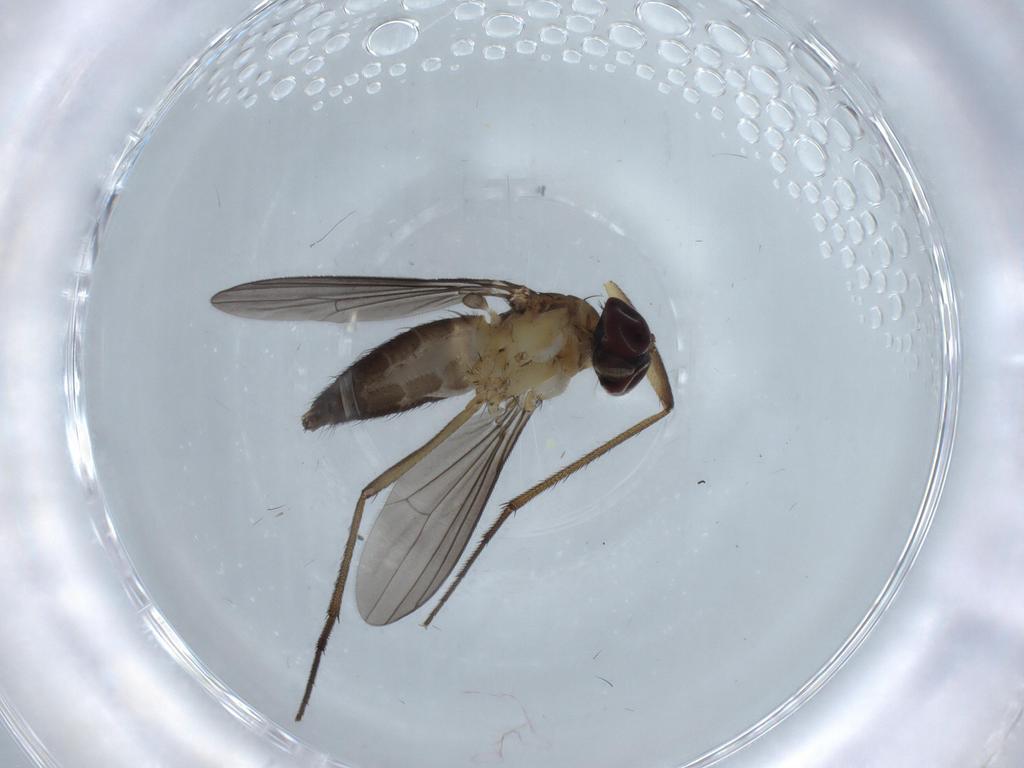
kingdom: Animalia
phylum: Arthropoda
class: Insecta
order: Diptera
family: Dolichopodidae
